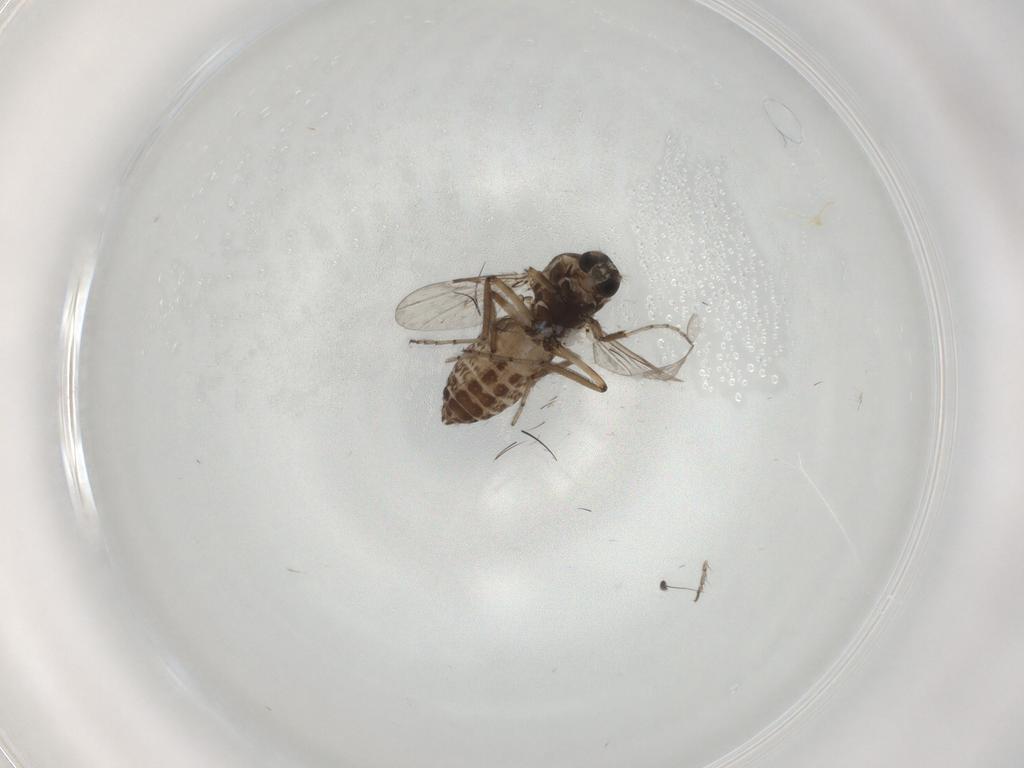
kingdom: Animalia
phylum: Arthropoda
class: Insecta
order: Diptera
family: Ceratopogonidae
